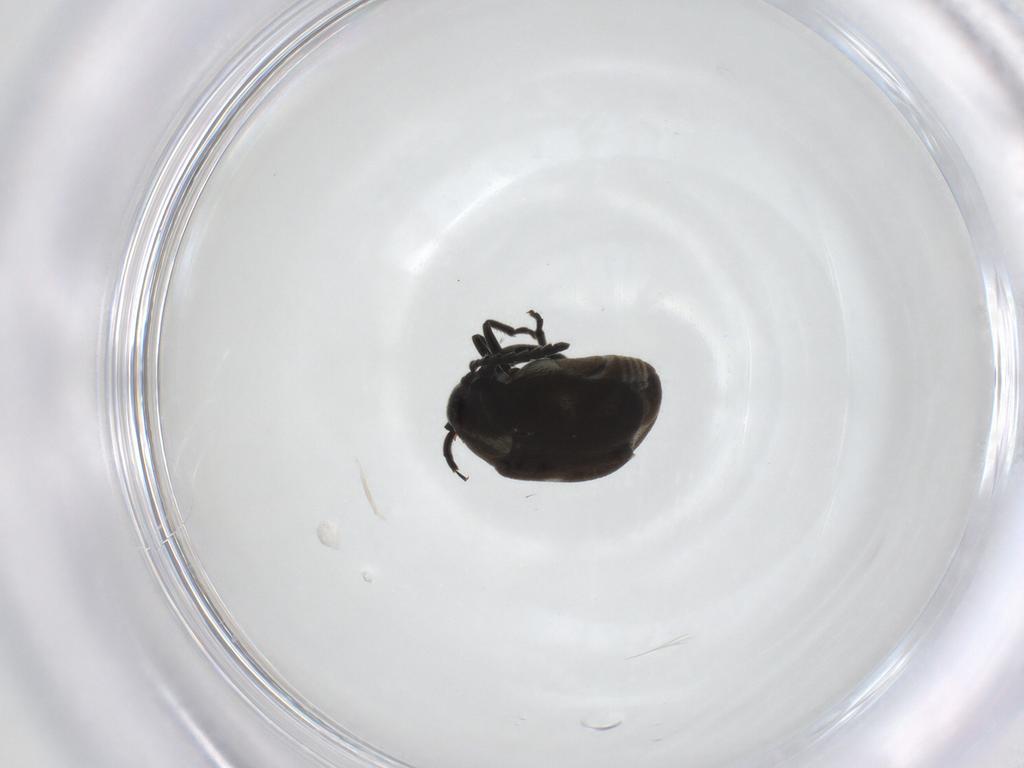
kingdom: Animalia
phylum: Arthropoda
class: Insecta
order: Coleoptera
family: Chrysomelidae
